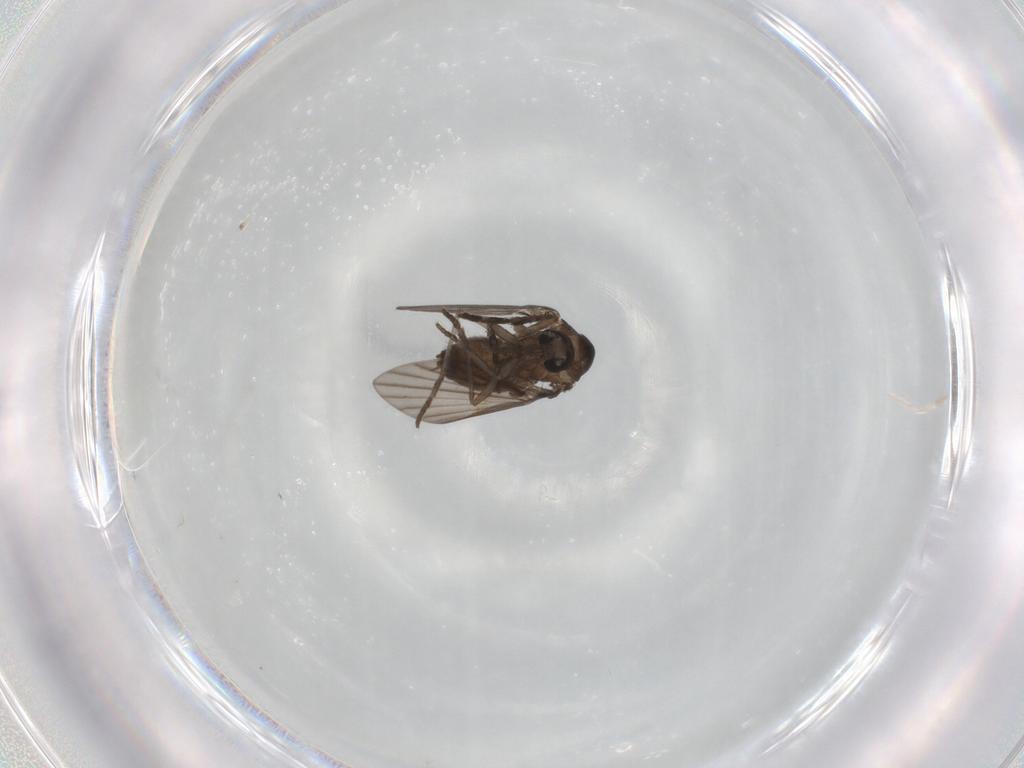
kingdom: Animalia
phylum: Arthropoda
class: Insecta
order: Diptera
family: Psychodidae
